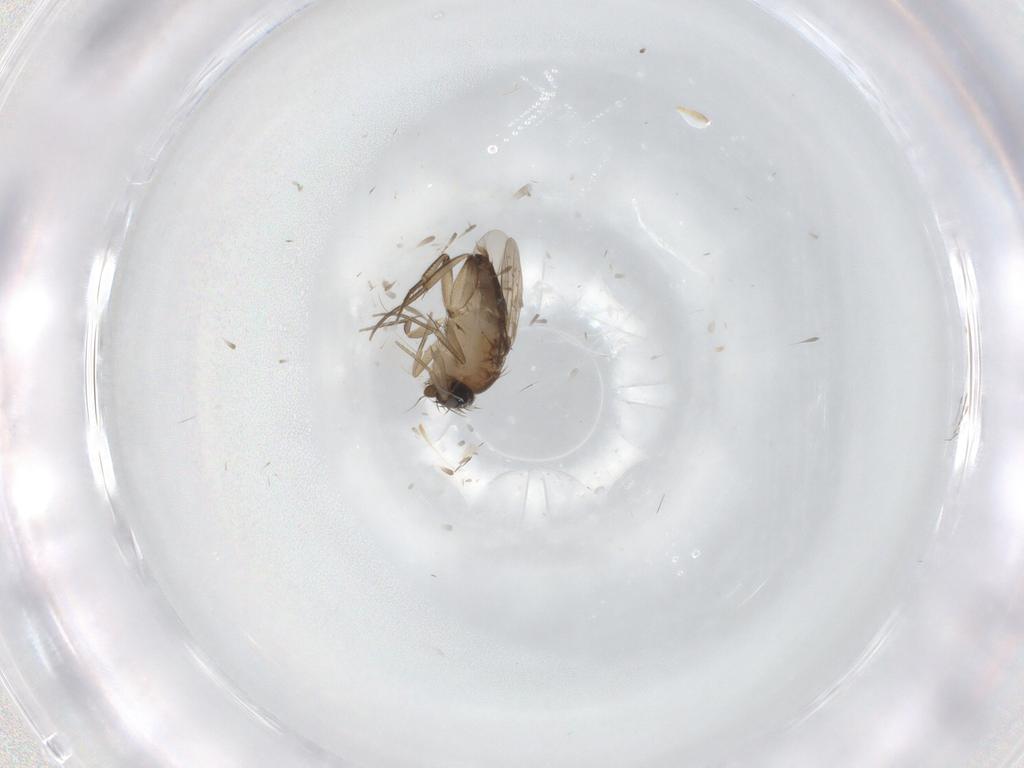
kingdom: Animalia
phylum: Arthropoda
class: Insecta
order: Diptera
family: Phoridae
